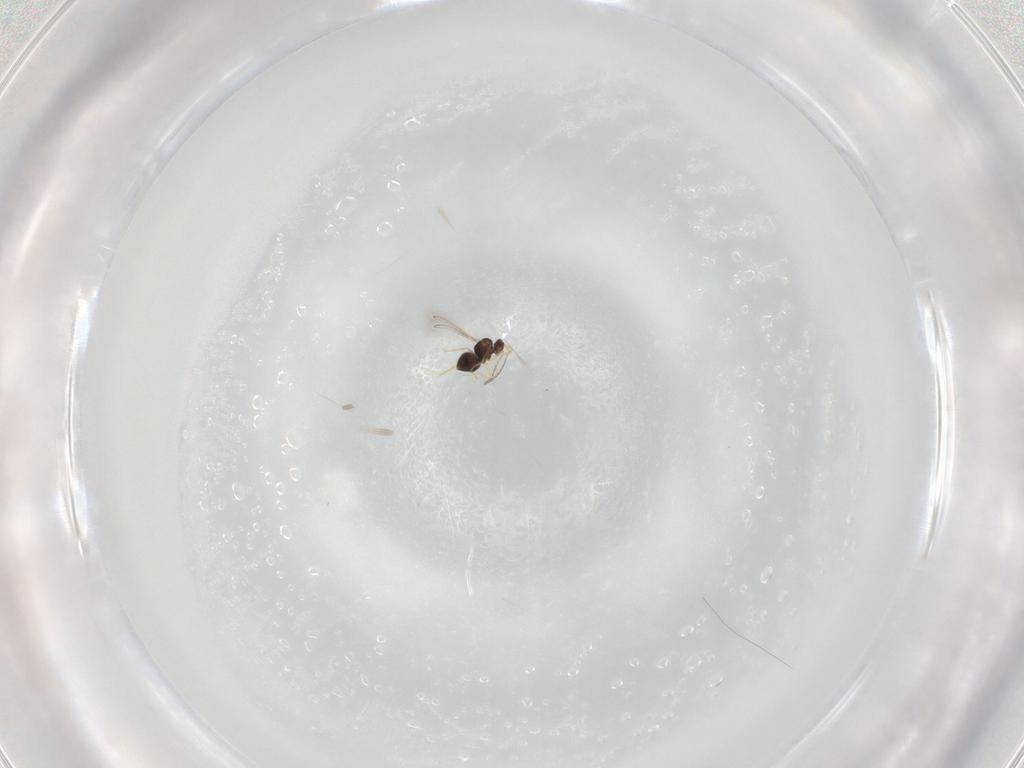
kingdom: Animalia
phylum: Arthropoda
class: Insecta
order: Hymenoptera
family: Mymaridae
